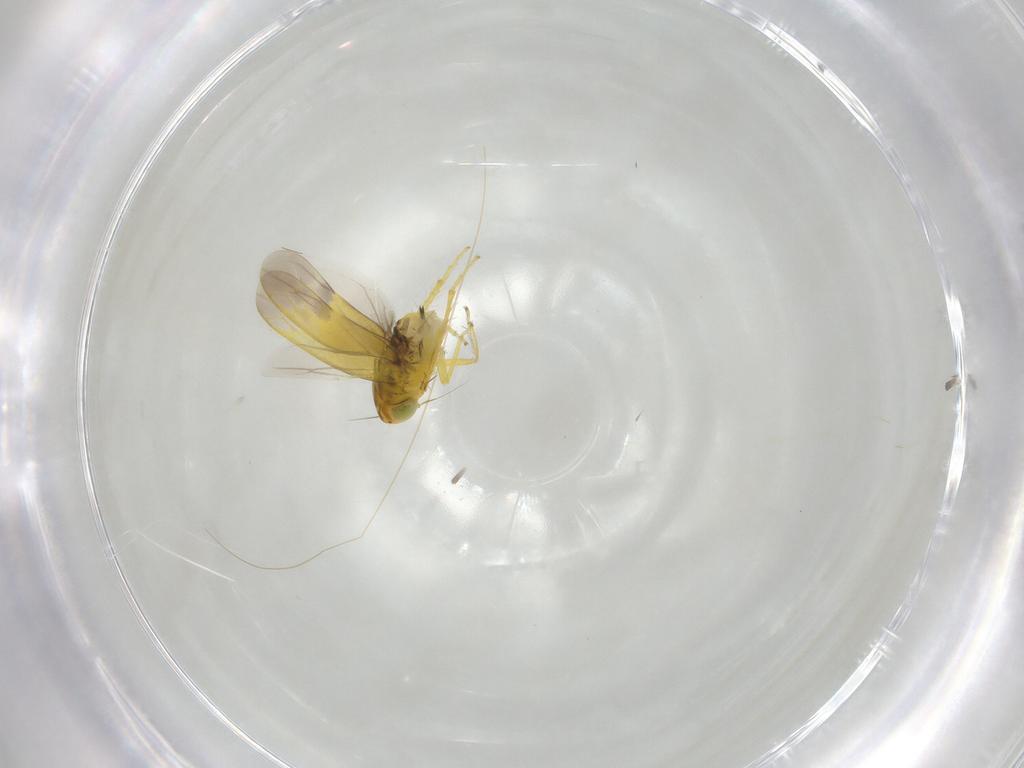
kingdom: Animalia
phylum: Arthropoda
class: Insecta
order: Hemiptera
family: Cicadellidae
